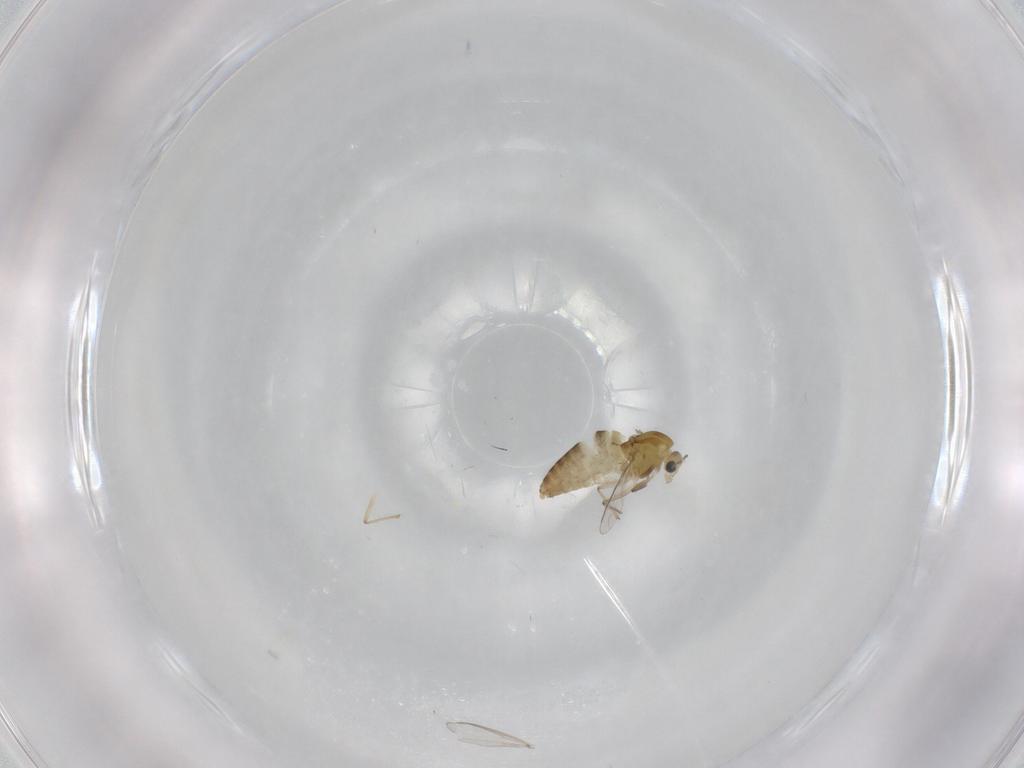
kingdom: Animalia
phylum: Arthropoda
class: Insecta
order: Diptera
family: Chironomidae
